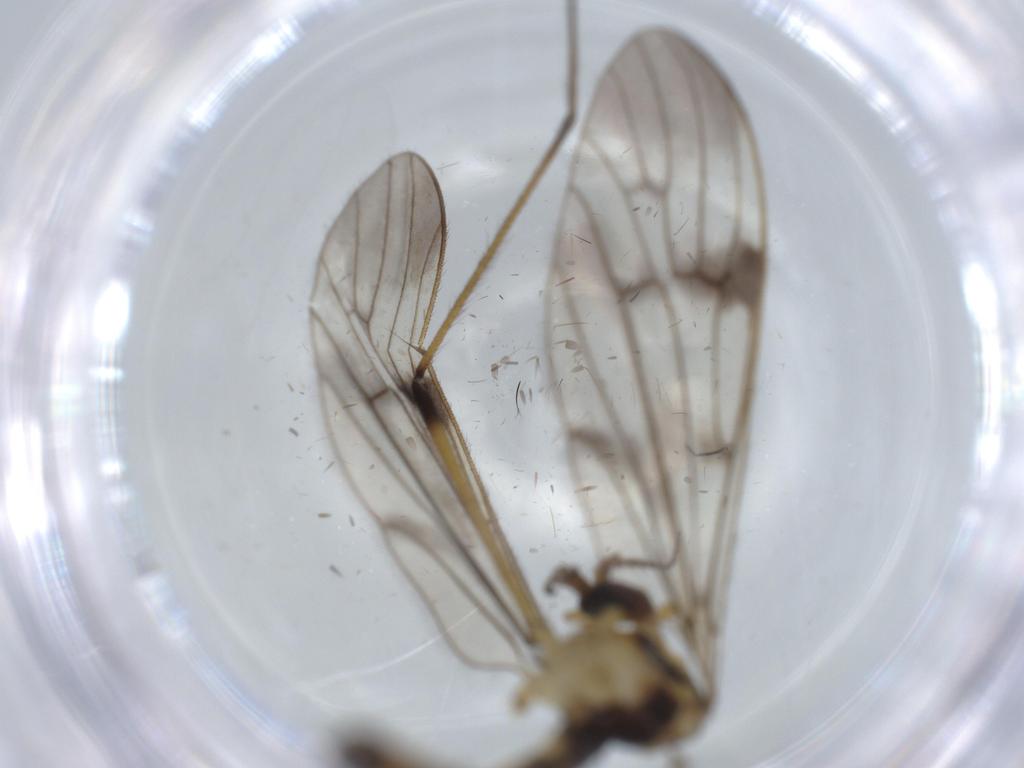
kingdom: Animalia
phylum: Arthropoda
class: Insecta
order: Diptera
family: Limoniidae
